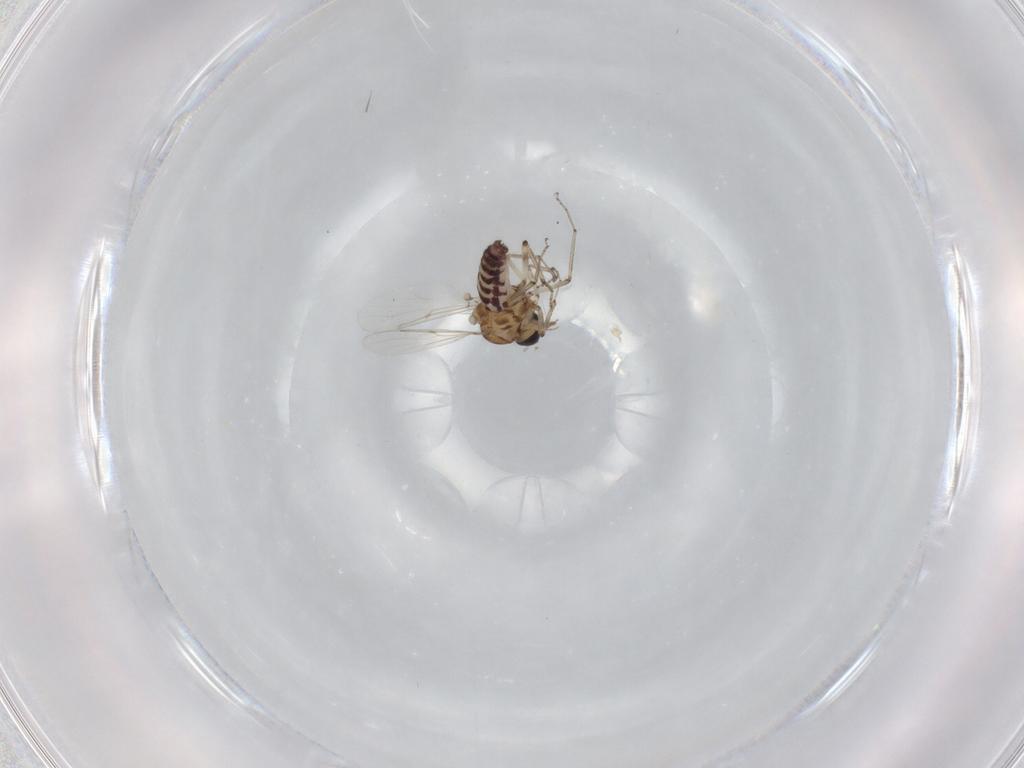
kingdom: Animalia
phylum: Arthropoda
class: Insecta
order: Diptera
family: Ceratopogonidae
